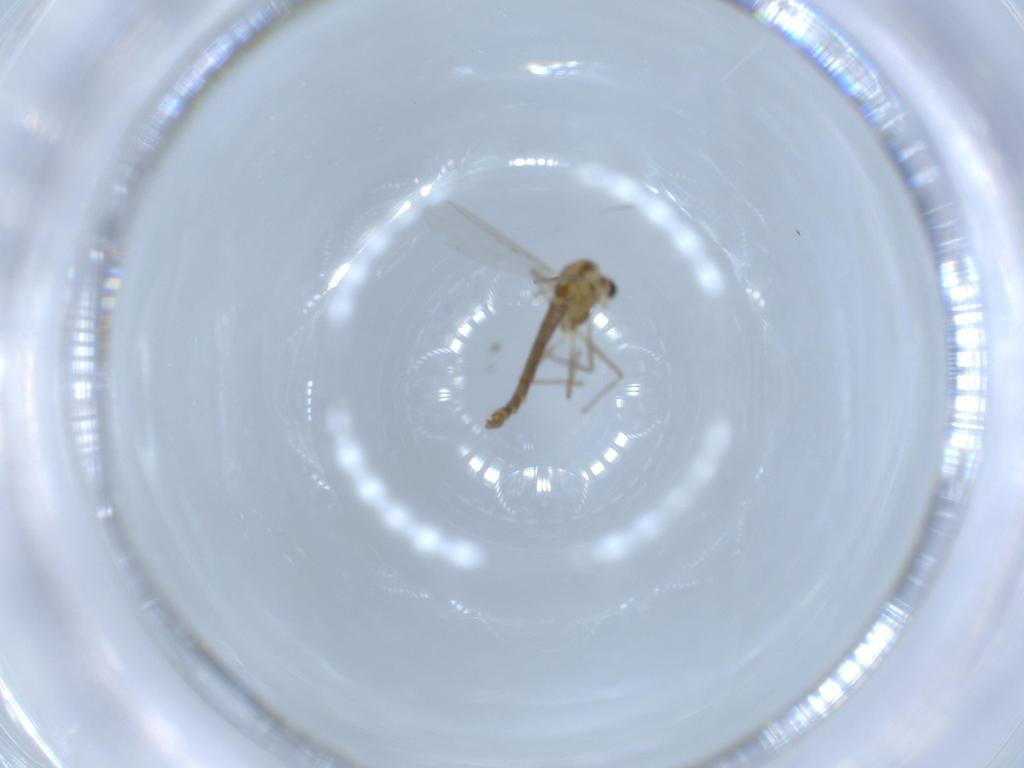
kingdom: Animalia
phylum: Arthropoda
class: Insecta
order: Diptera
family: Chironomidae
